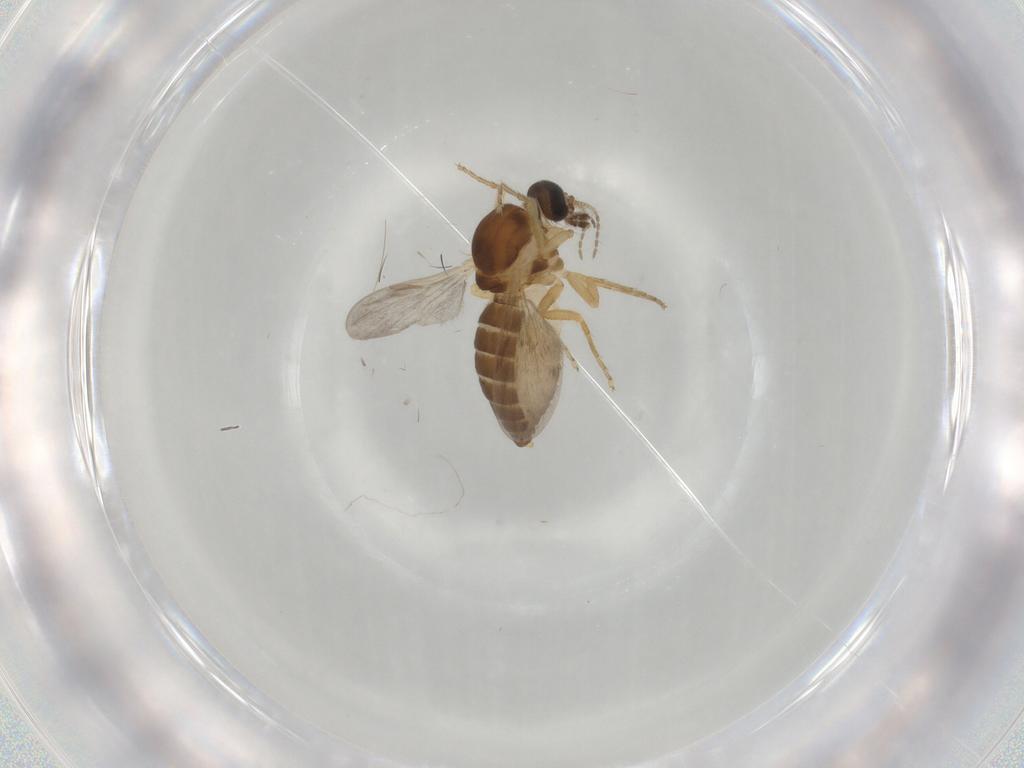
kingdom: Animalia
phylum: Arthropoda
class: Insecta
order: Diptera
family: Ceratopogonidae
